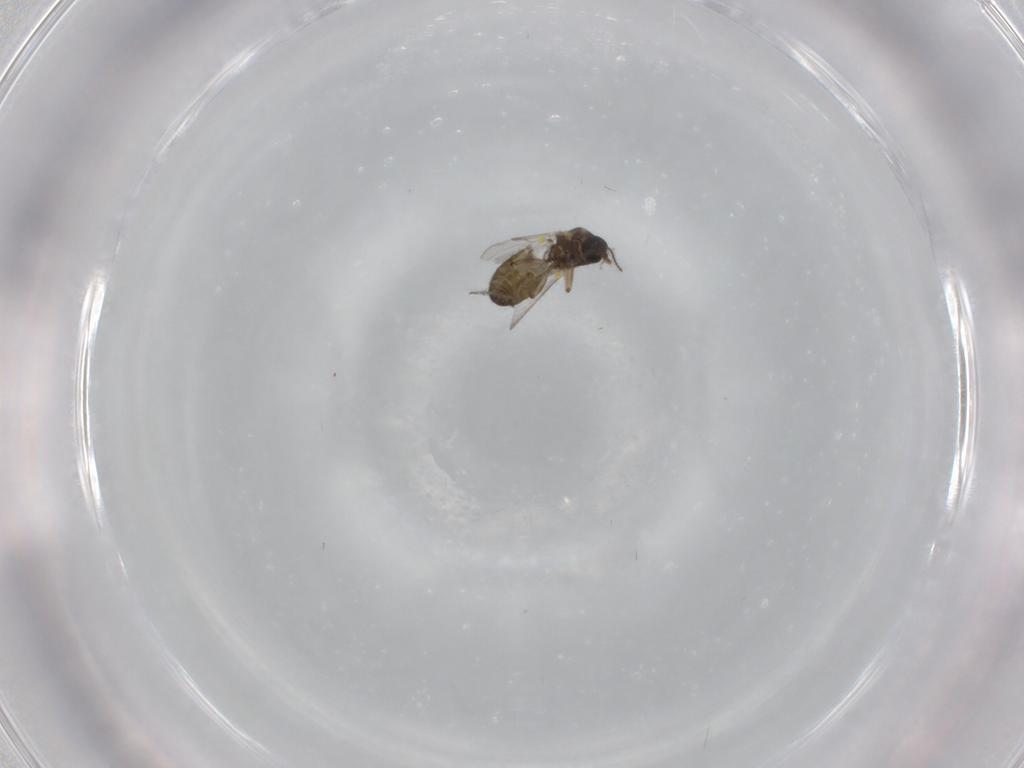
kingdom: Animalia
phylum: Arthropoda
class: Insecta
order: Diptera
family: Ceratopogonidae
